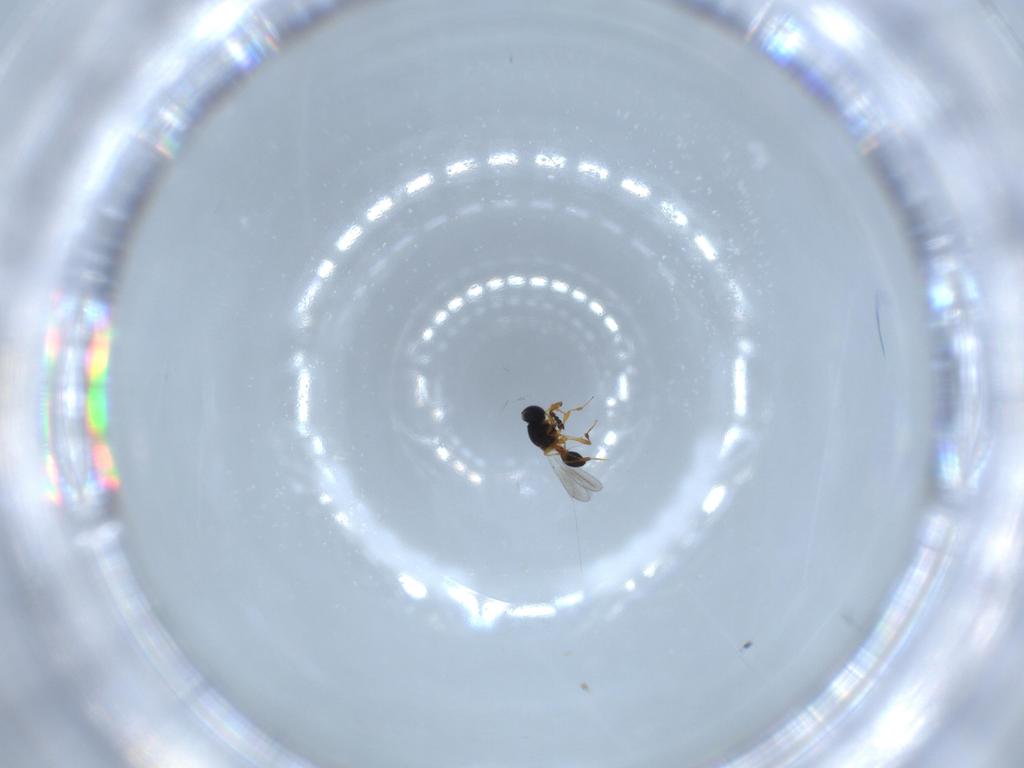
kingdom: Animalia
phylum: Arthropoda
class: Insecta
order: Hymenoptera
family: Platygastridae
